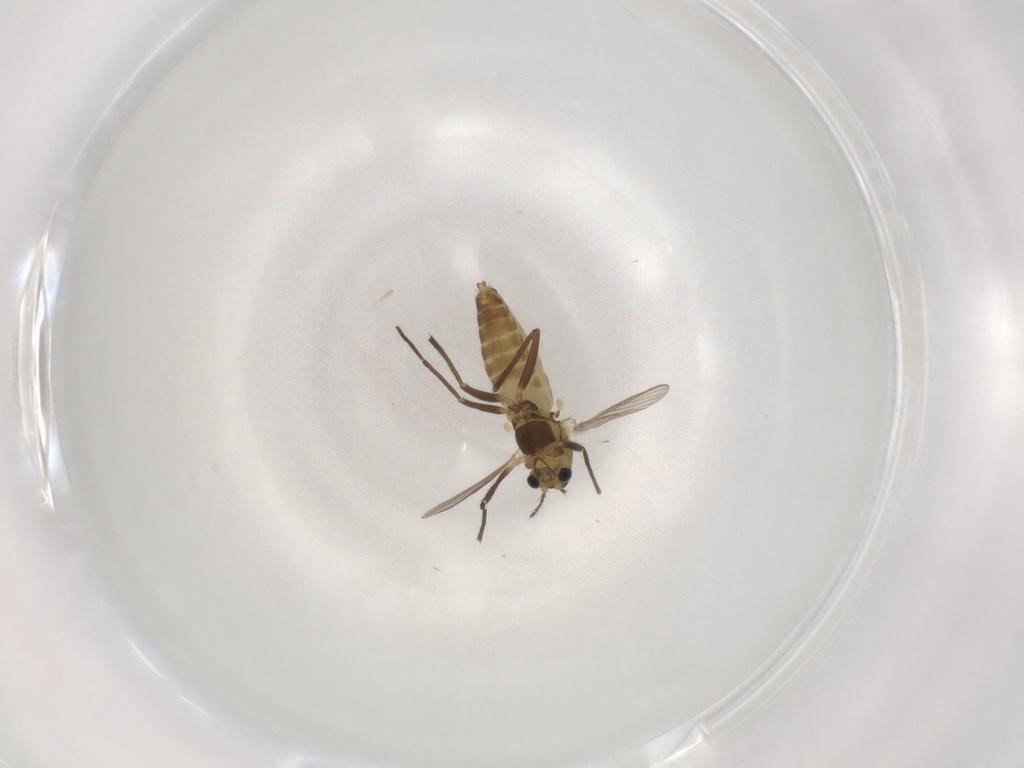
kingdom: Animalia
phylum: Arthropoda
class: Insecta
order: Diptera
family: Chironomidae
